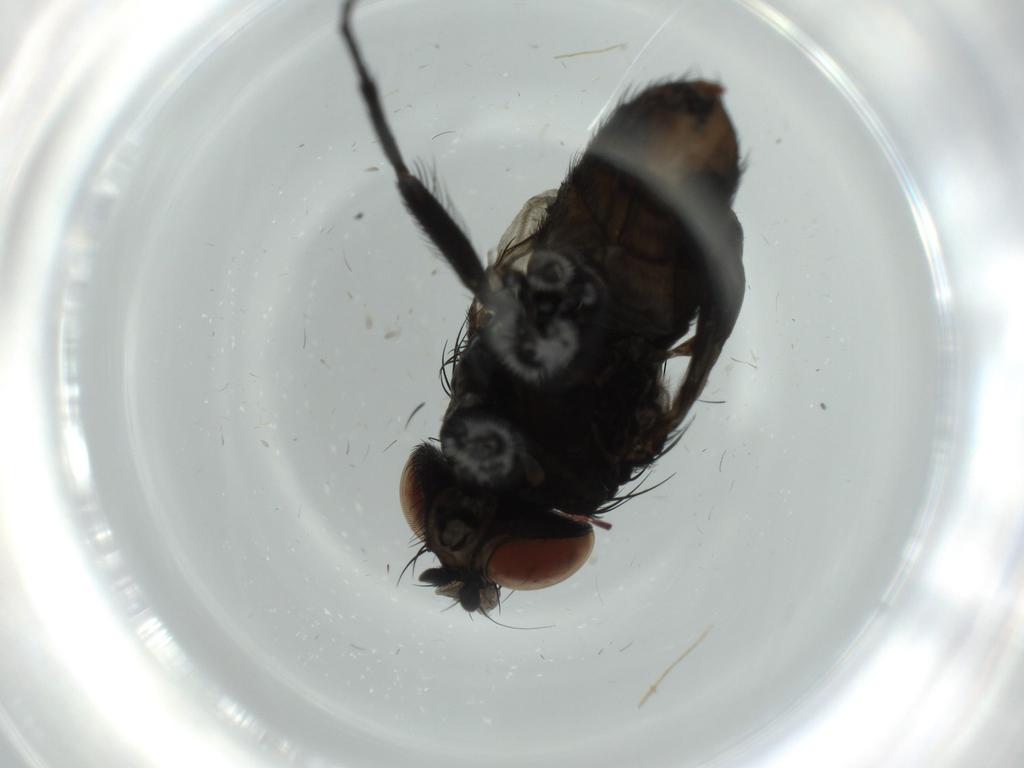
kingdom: Animalia
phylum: Arthropoda
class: Insecta
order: Diptera
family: Milichiidae
